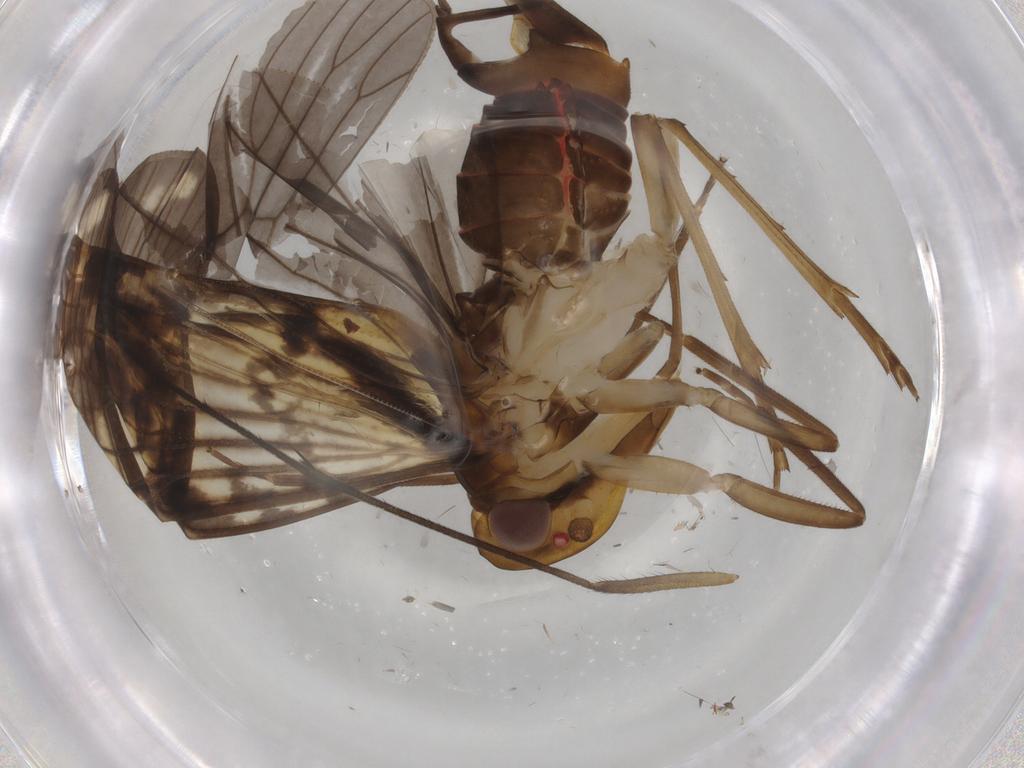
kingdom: Animalia
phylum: Arthropoda
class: Insecta
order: Hemiptera
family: Cixiidae
